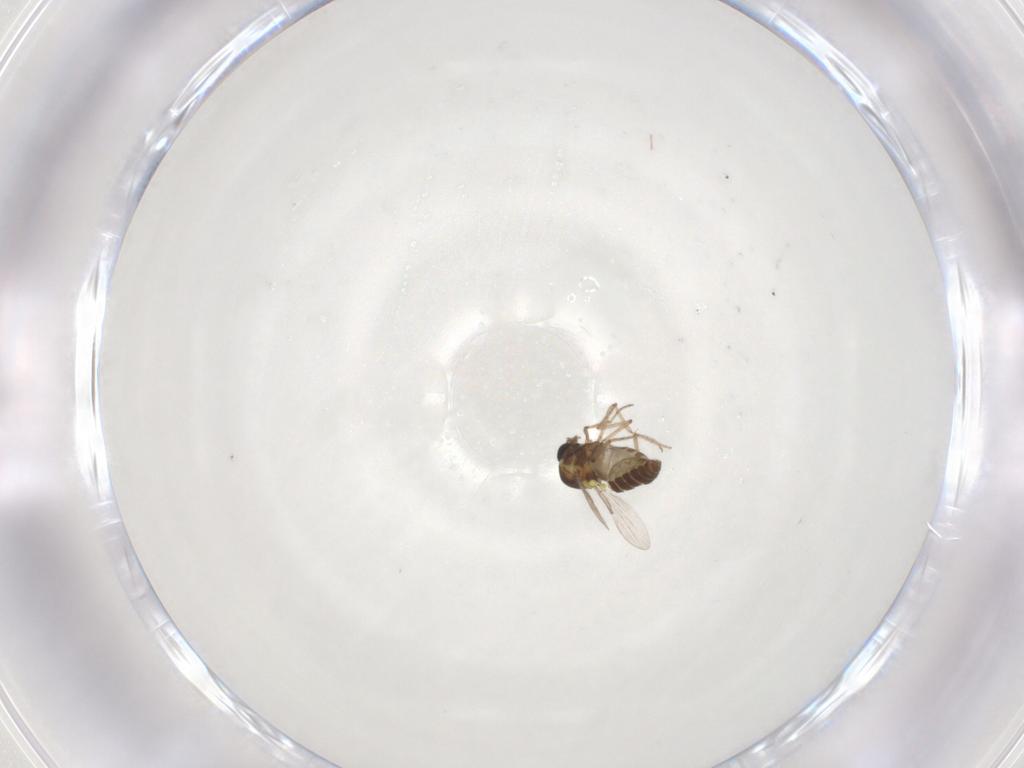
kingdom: Animalia
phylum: Arthropoda
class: Insecta
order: Diptera
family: Ceratopogonidae
